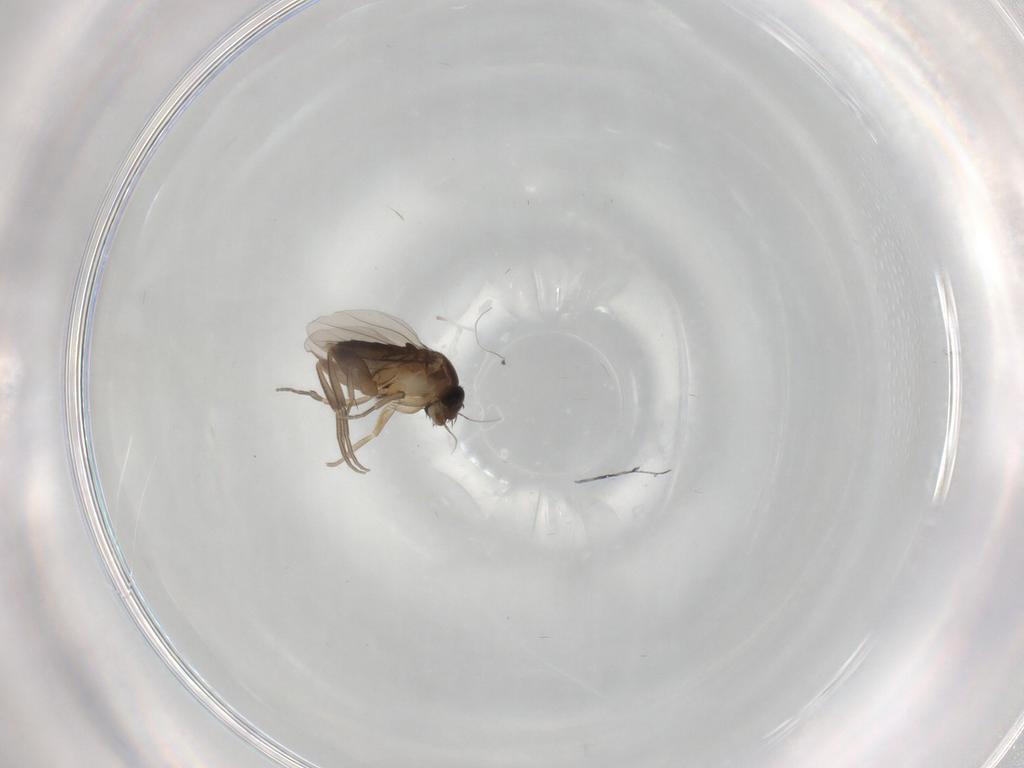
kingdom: Animalia
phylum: Arthropoda
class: Insecta
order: Diptera
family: Phoridae
